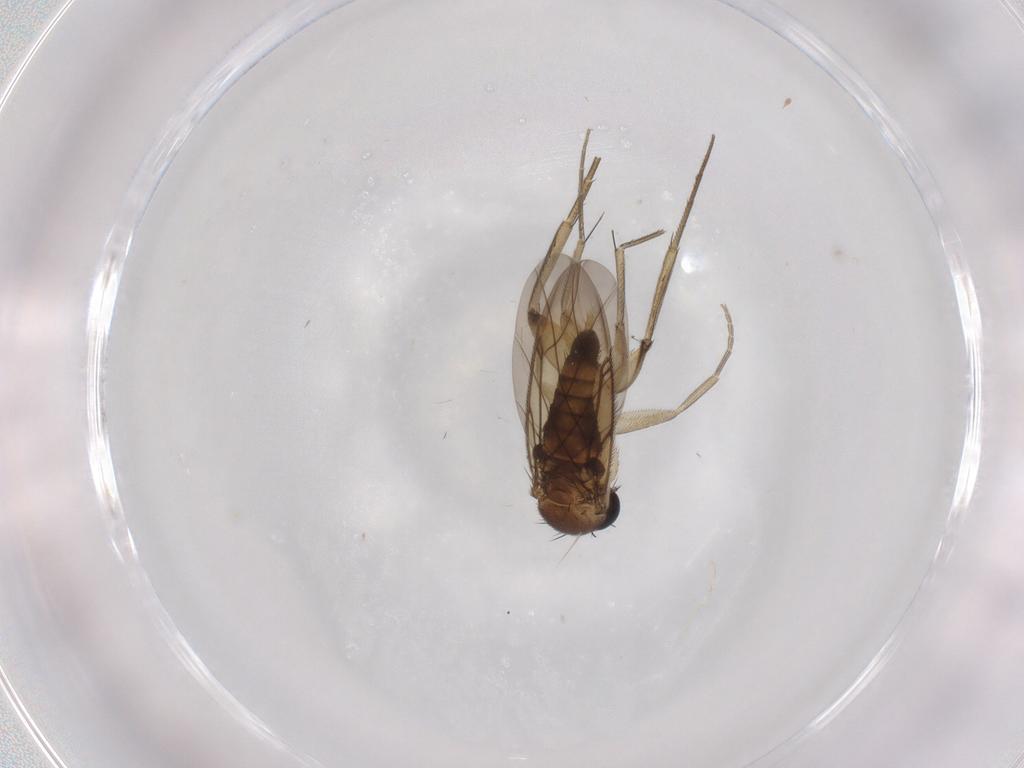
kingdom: Animalia
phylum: Arthropoda
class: Insecta
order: Diptera
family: Phoridae
